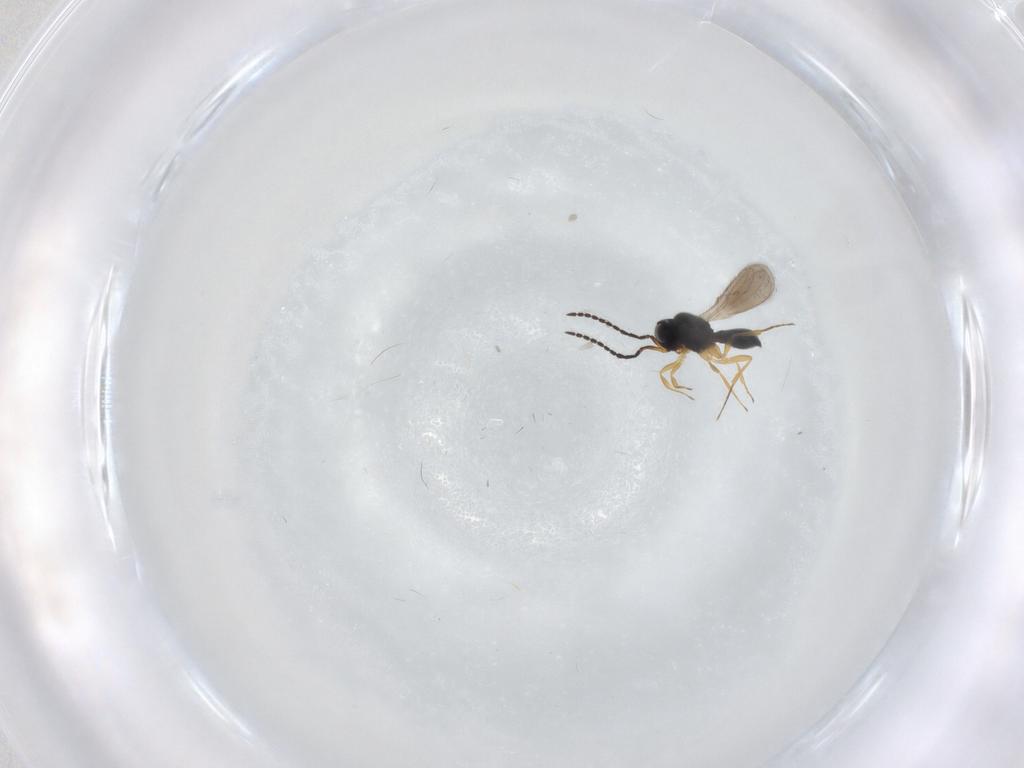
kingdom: Animalia
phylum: Arthropoda
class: Insecta
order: Hymenoptera
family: Scelionidae
